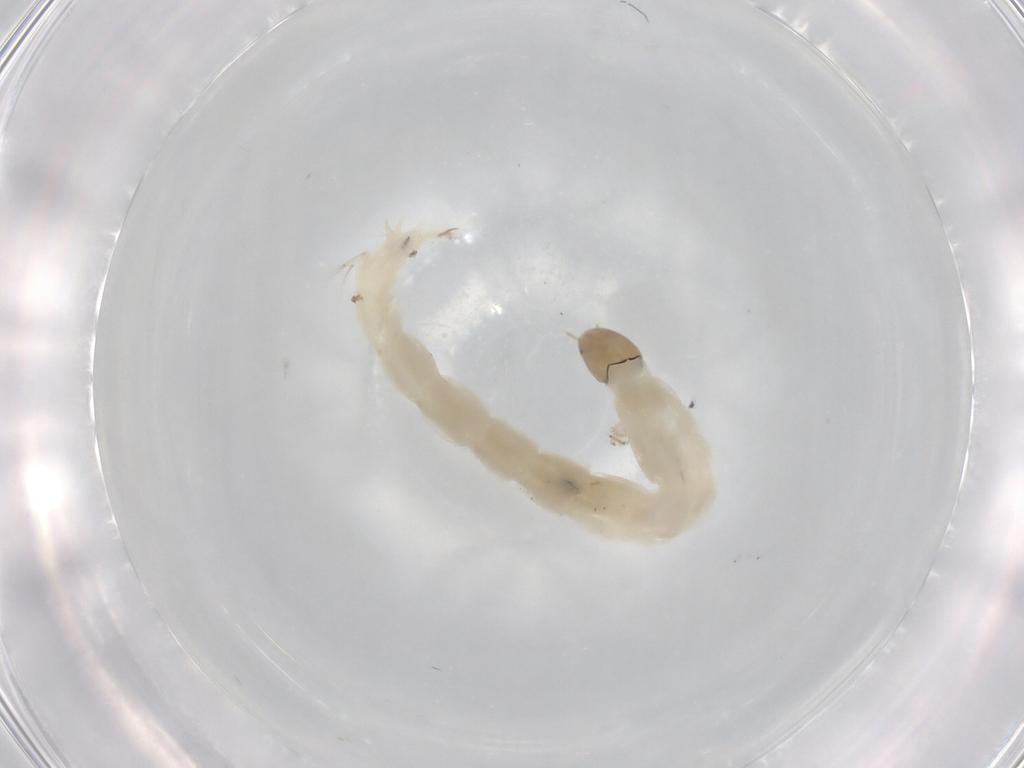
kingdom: Animalia
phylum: Arthropoda
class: Insecta
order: Diptera
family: Chironomidae
